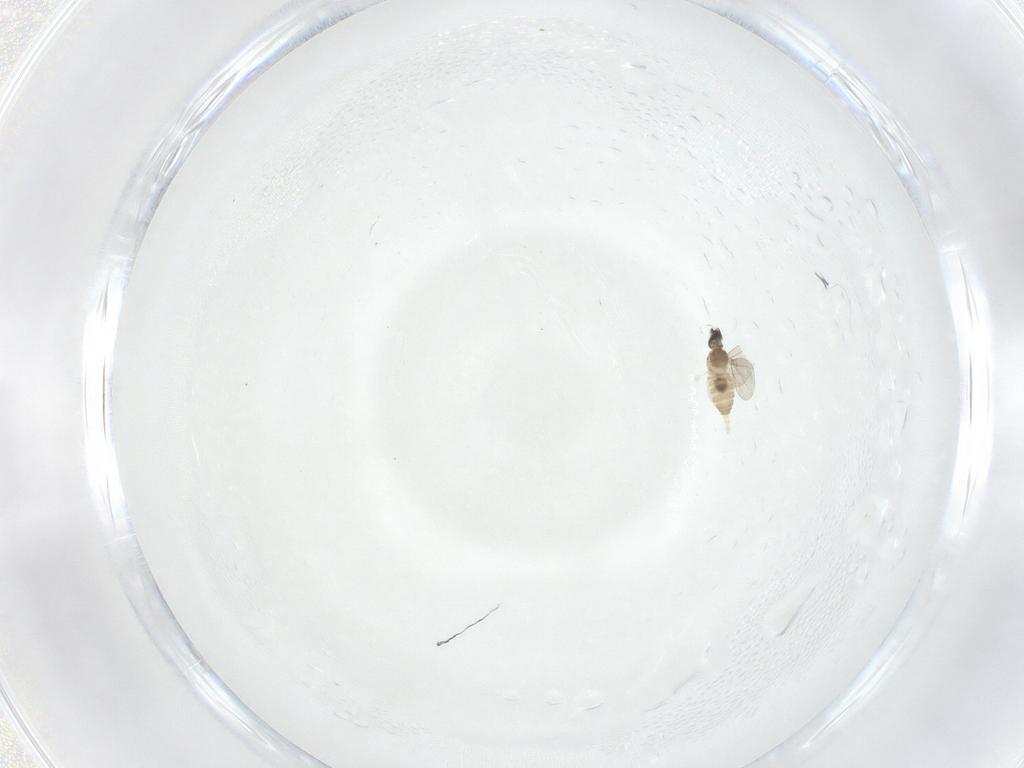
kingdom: Animalia
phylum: Arthropoda
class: Insecta
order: Diptera
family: Cecidomyiidae
